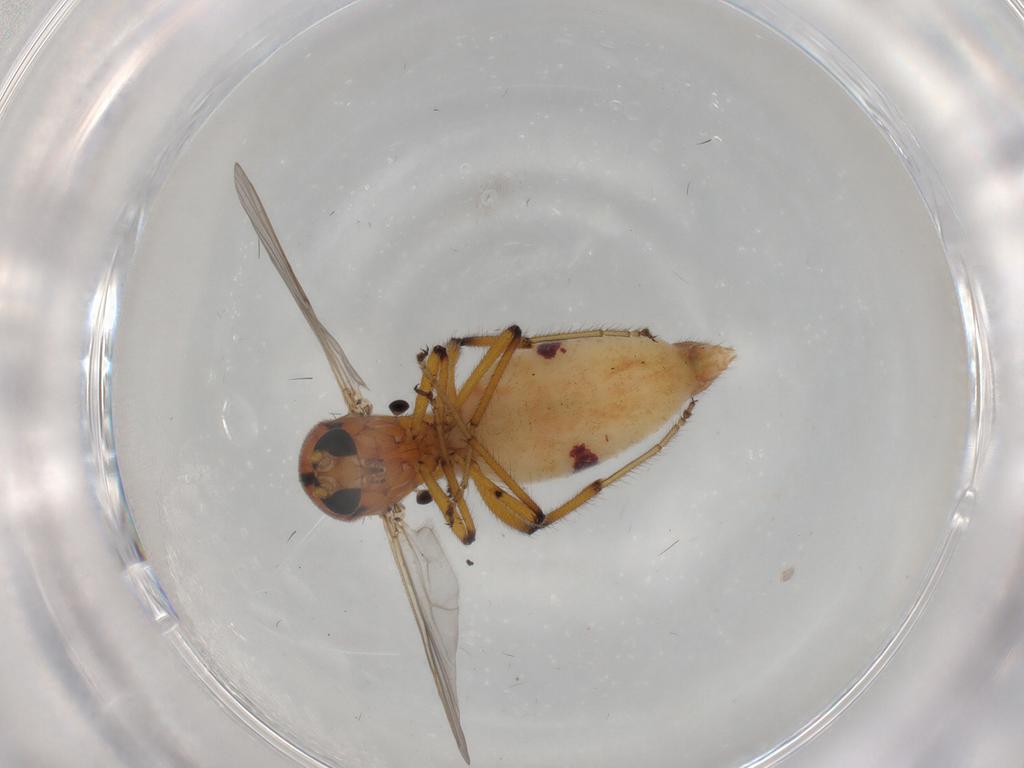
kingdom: Animalia
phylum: Arthropoda
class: Insecta
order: Diptera
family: Ceratopogonidae
